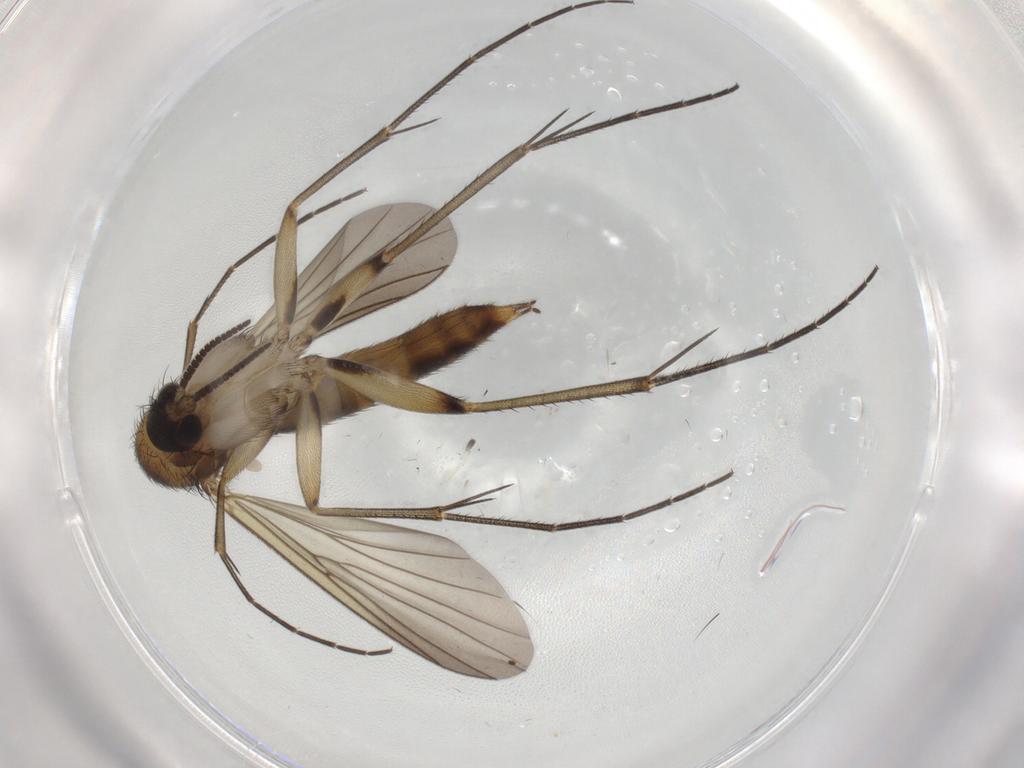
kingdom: Animalia
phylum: Arthropoda
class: Insecta
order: Diptera
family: Mycetophilidae
